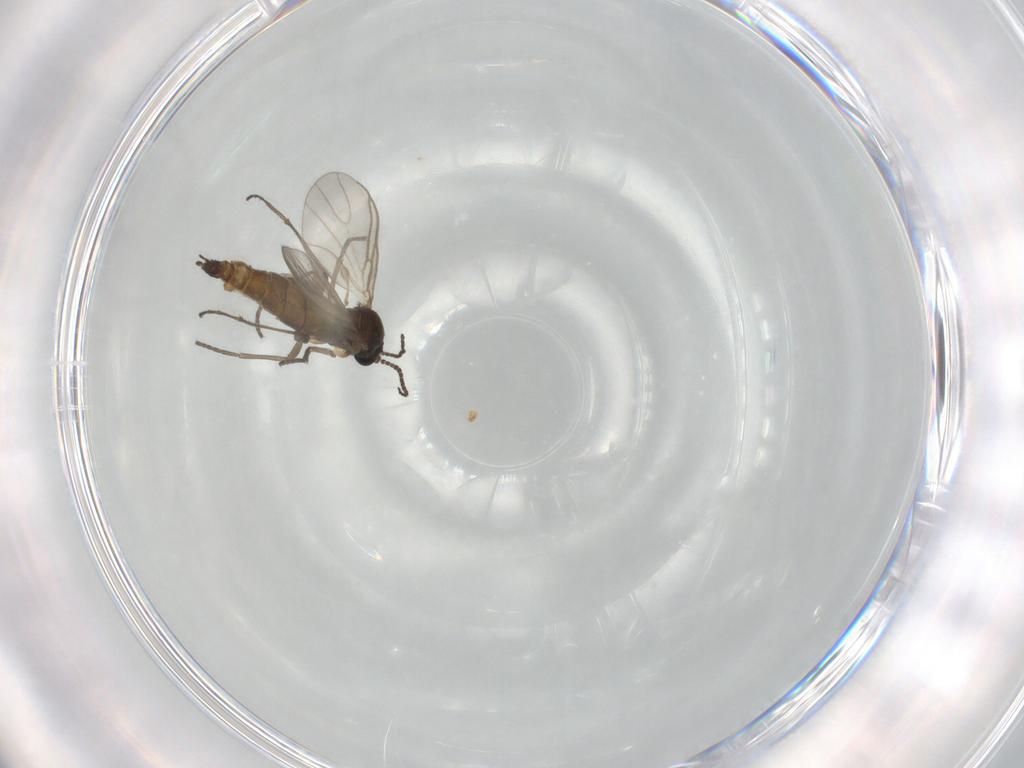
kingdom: Animalia
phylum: Arthropoda
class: Insecta
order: Diptera
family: Sciaridae
